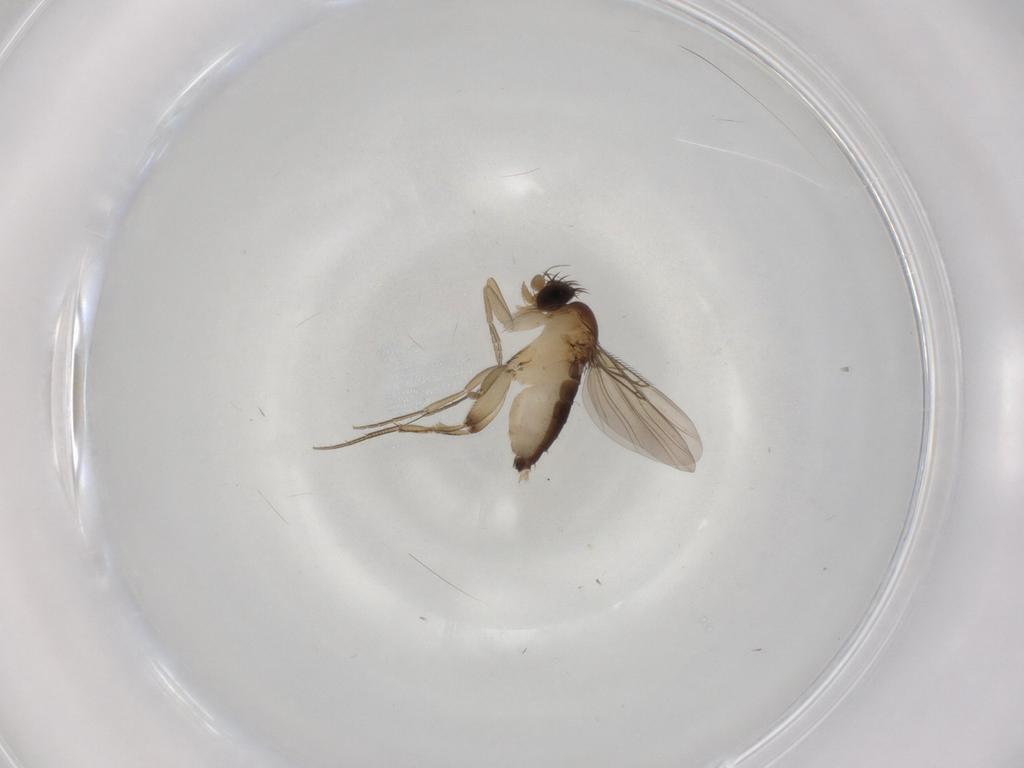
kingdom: Animalia
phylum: Arthropoda
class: Insecta
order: Diptera
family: Phoridae
